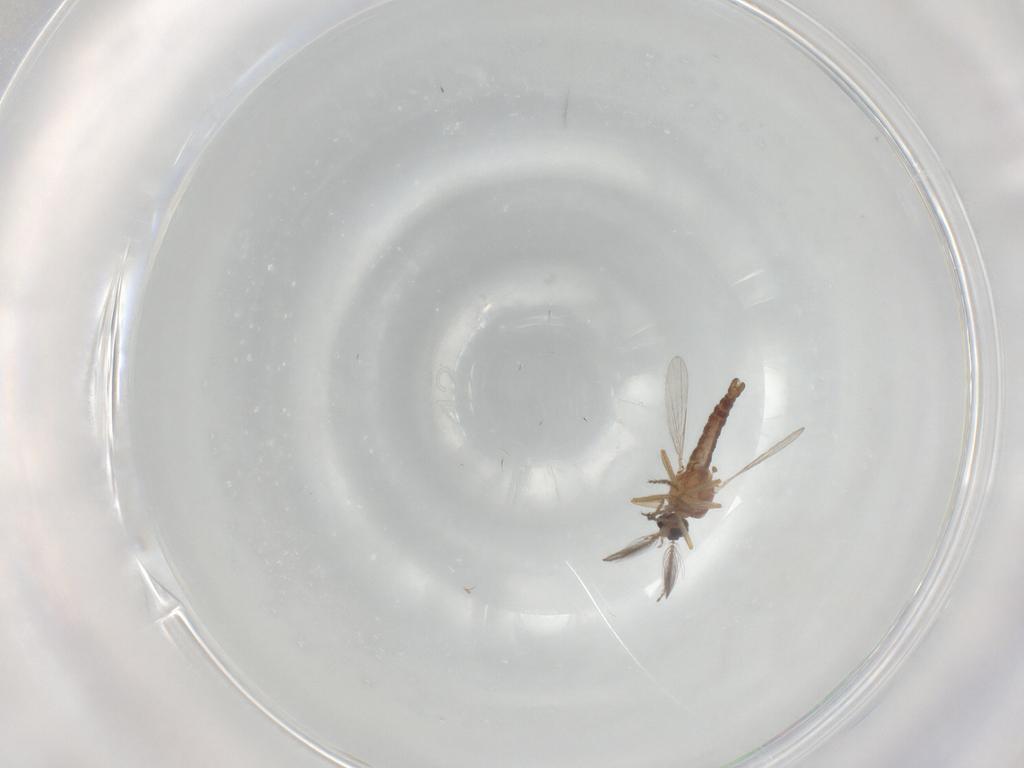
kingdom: Animalia
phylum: Arthropoda
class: Insecta
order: Diptera
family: Ceratopogonidae
